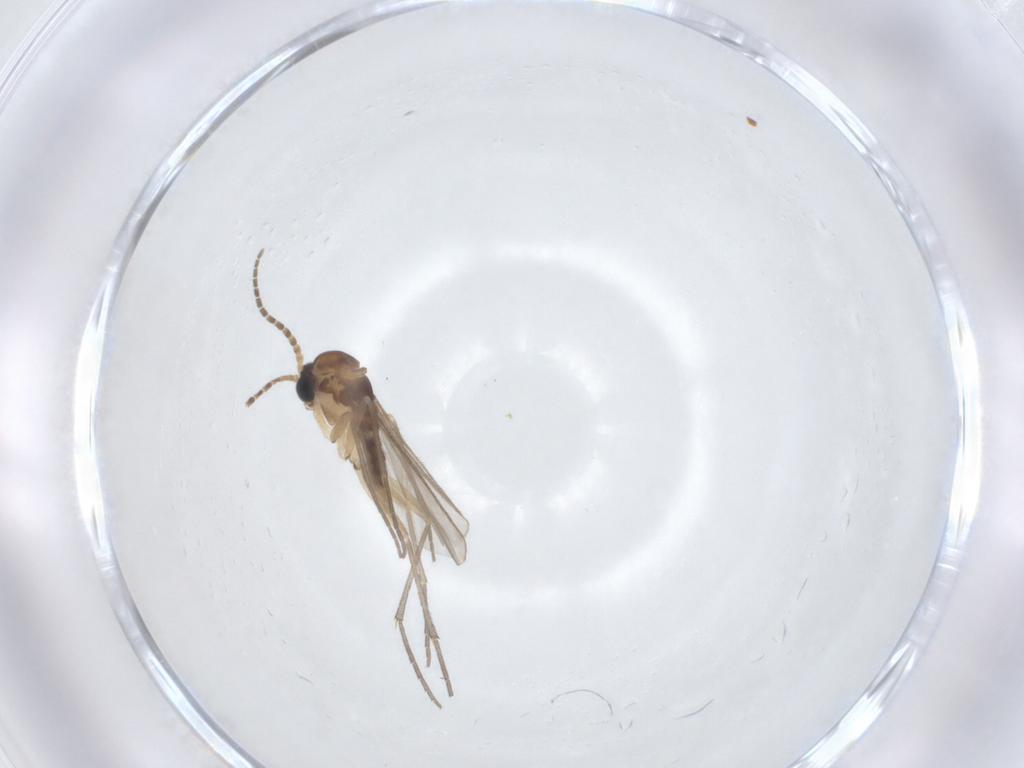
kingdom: Animalia
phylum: Arthropoda
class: Insecta
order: Diptera
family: Sciaridae
